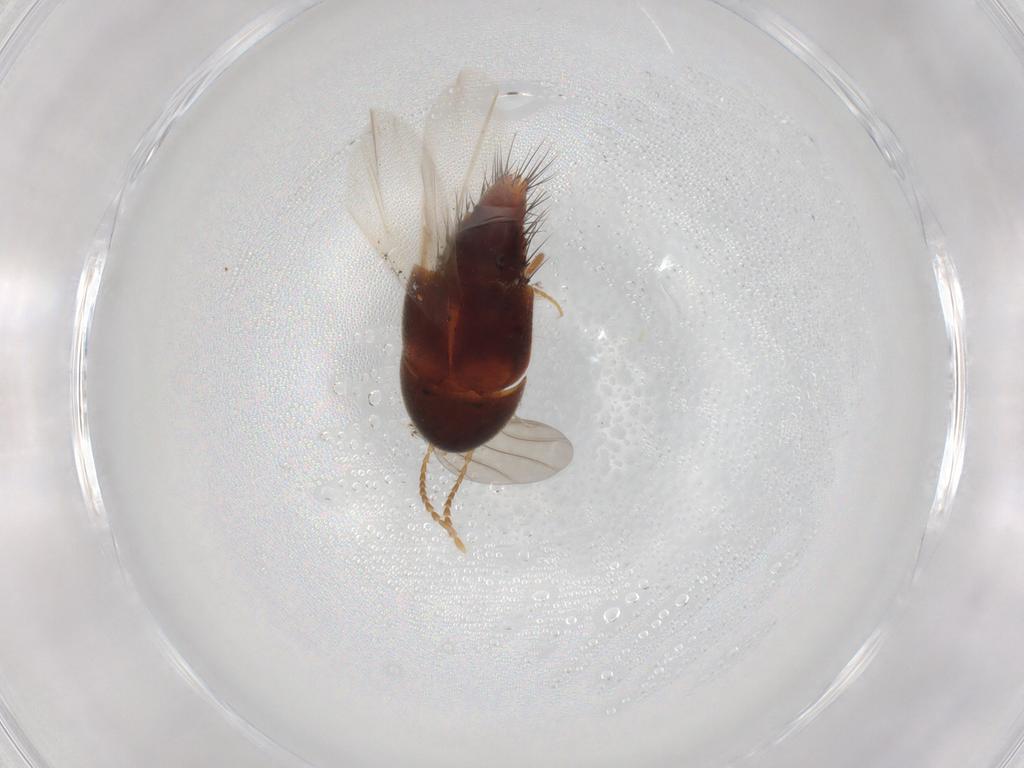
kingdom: Animalia
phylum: Arthropoda
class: Insecta
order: Coleoptera
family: Staphylinidae
